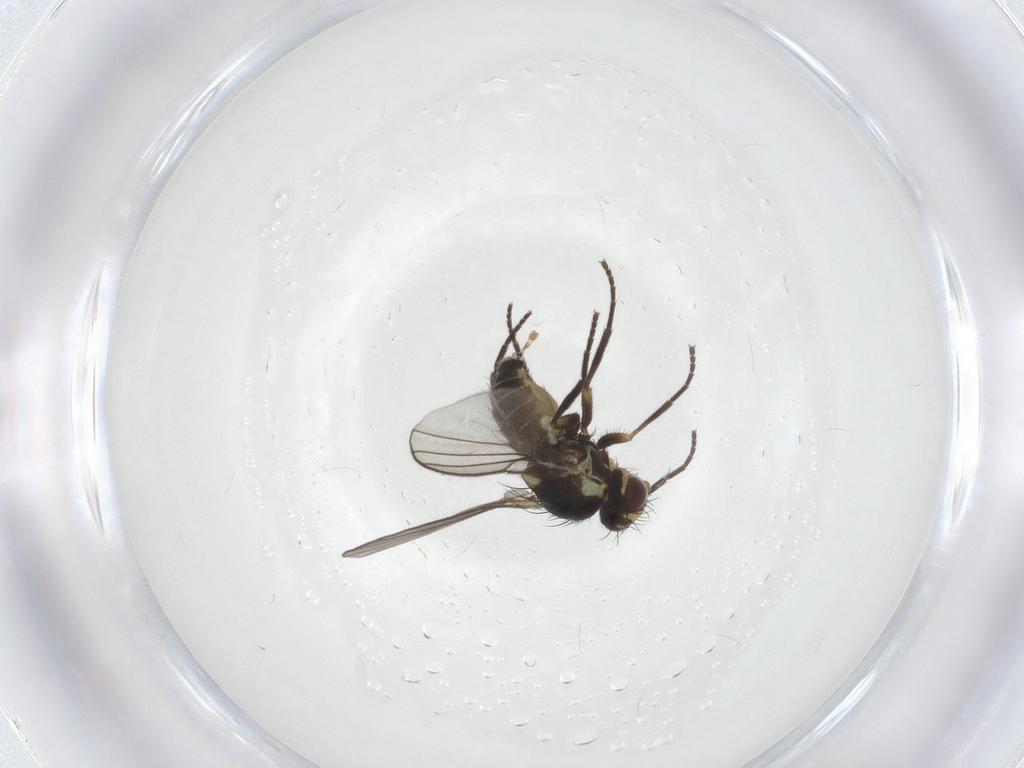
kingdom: Animalia
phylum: Arthropoda
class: Insecta
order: Diptera
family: Agromyzidae
